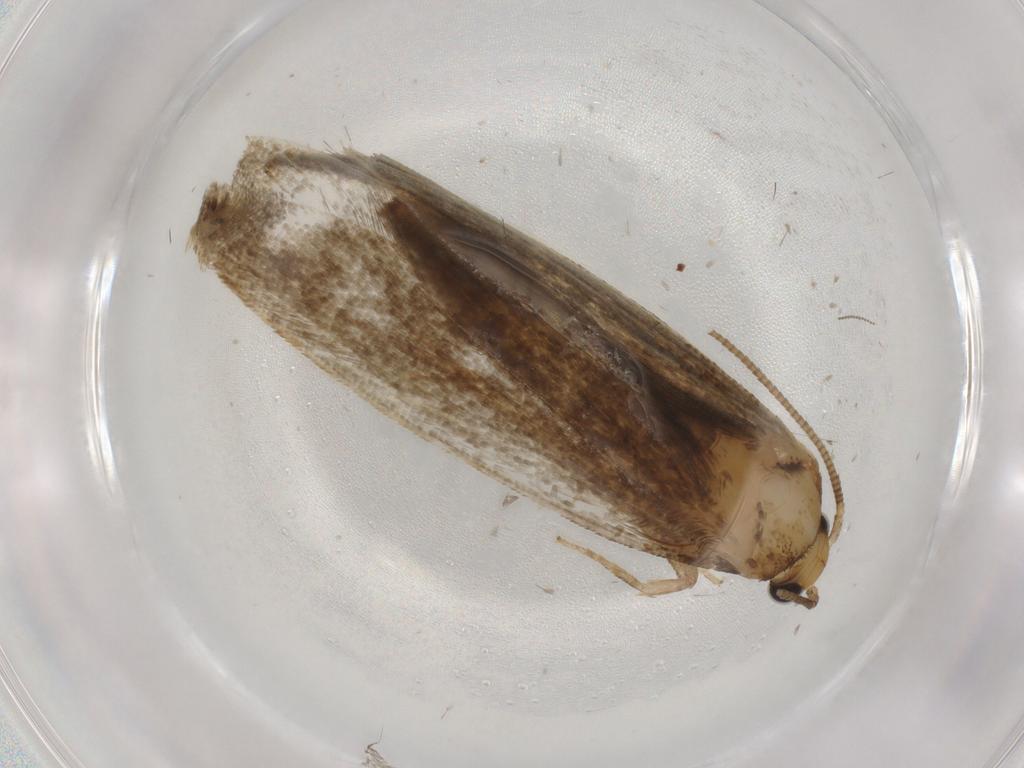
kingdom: Animalia
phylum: Arthropoda
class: Insecta
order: Lepidoptera
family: Tineidae
